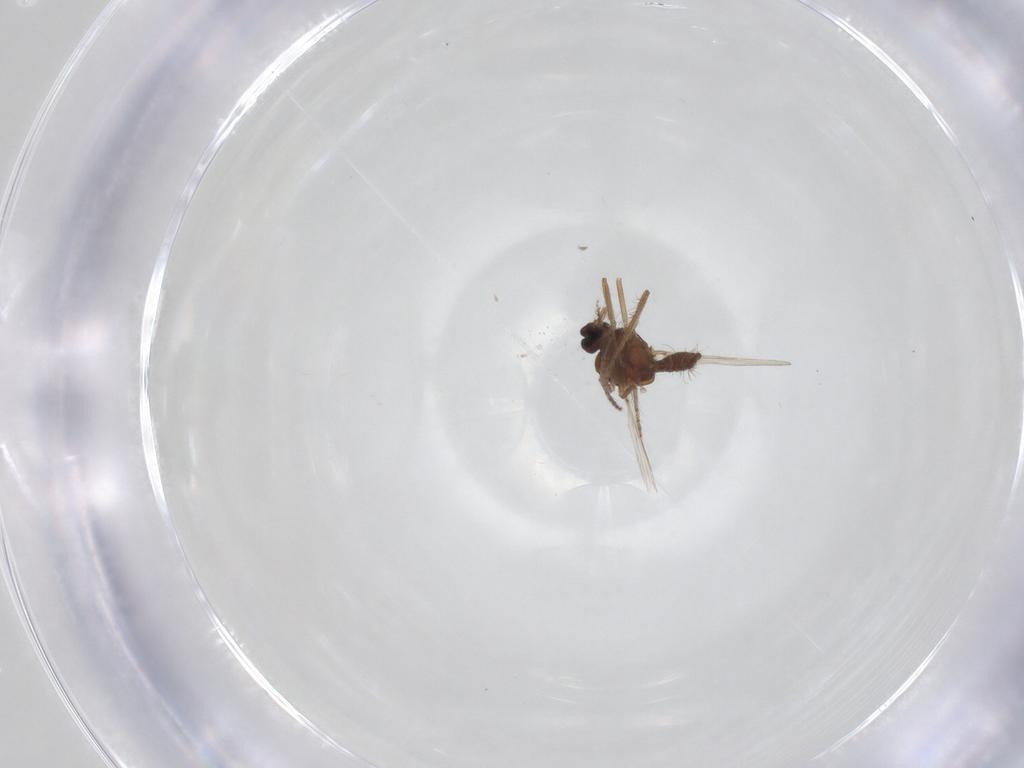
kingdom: Animalia
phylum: Arthropoda
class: Insecta
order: Diptera
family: Ceratopogonidae
